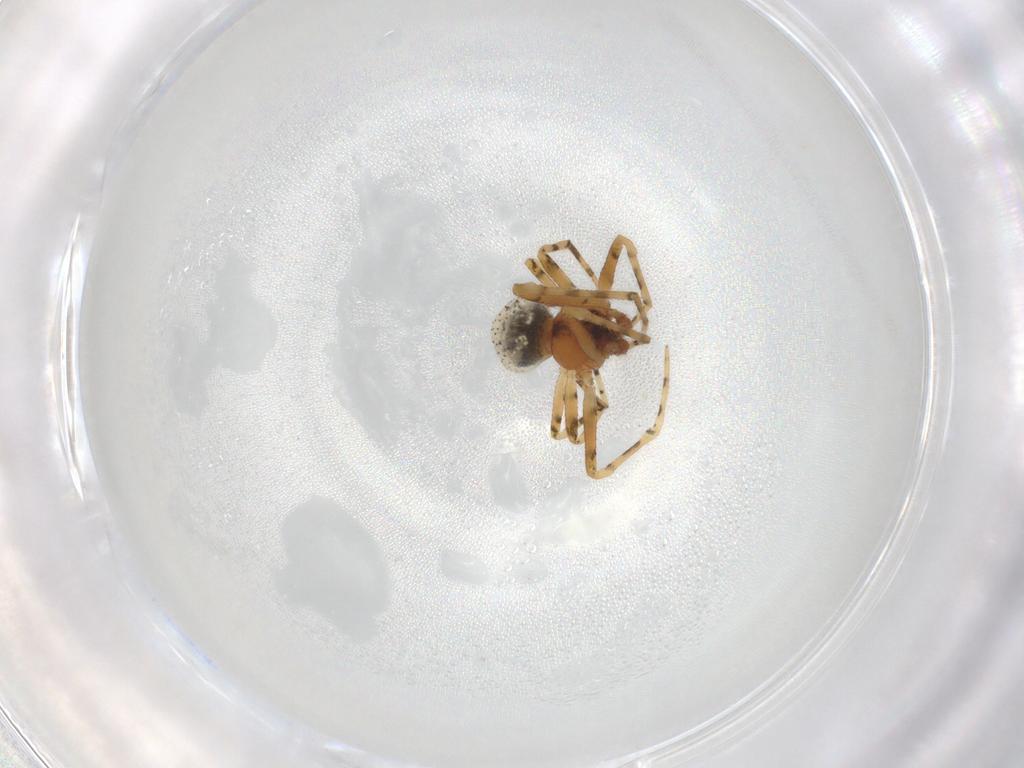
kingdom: Animalia
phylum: Arthropoda
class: Arachnida
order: Araneae
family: Theridiidae
